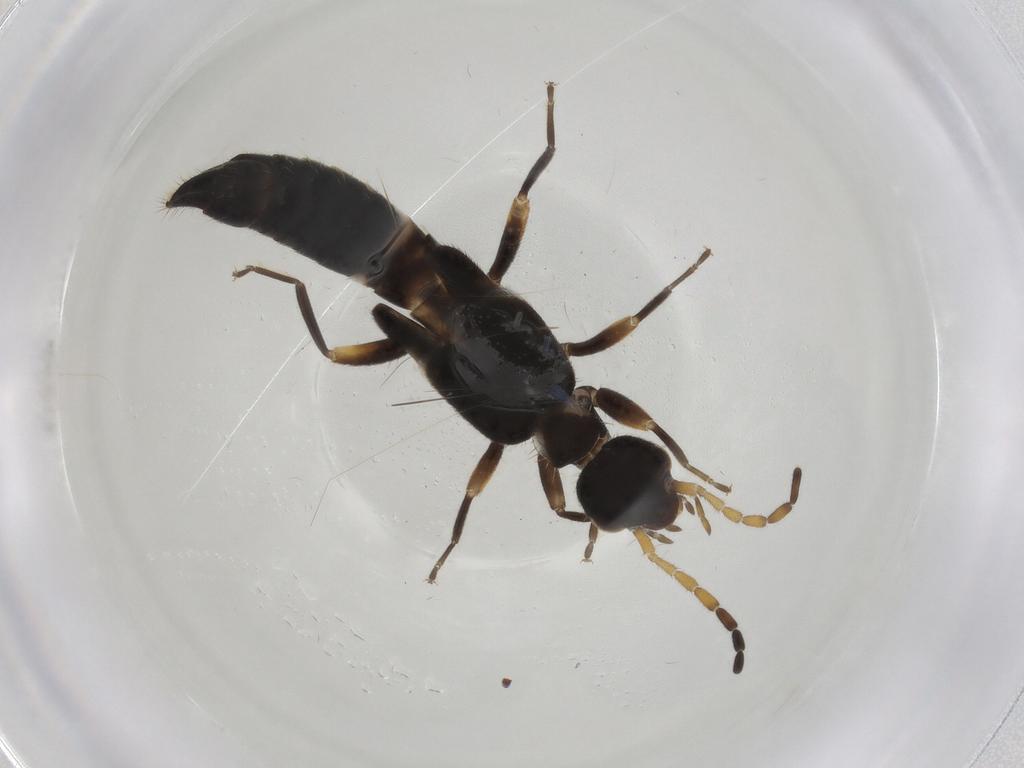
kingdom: Animalia
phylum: Arthropoda
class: Insecta
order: Dermaptera
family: Forficulidae
